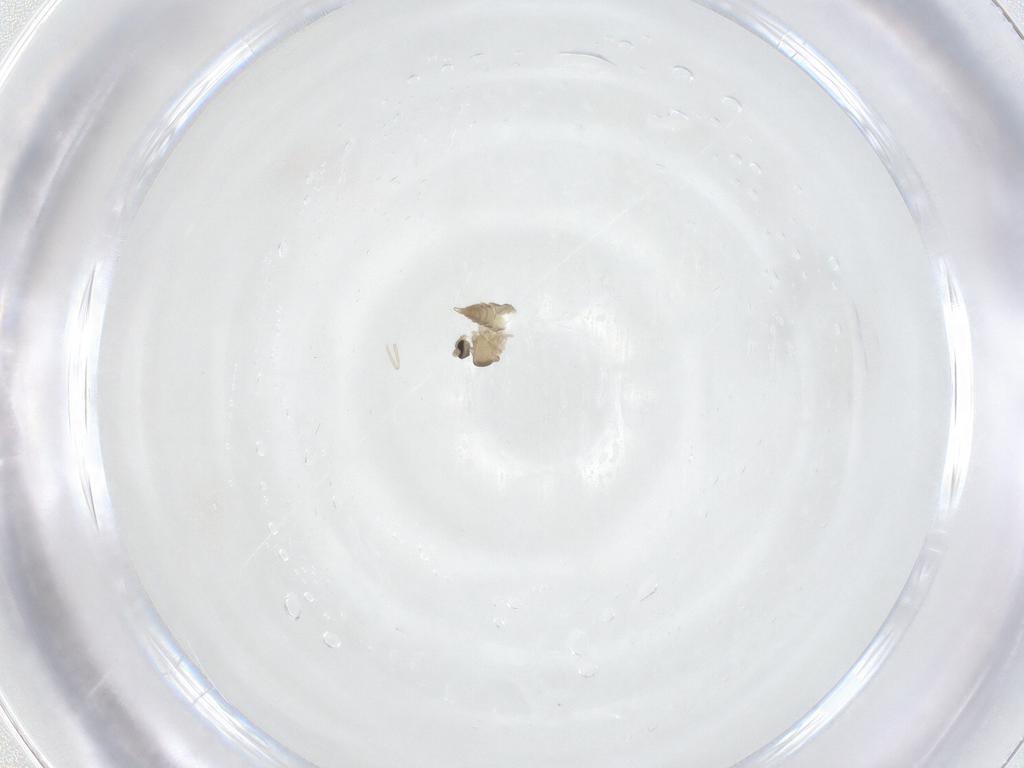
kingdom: Animalia
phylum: Arthropoda
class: Insecta
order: Diptera
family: Cecidomyiidae
